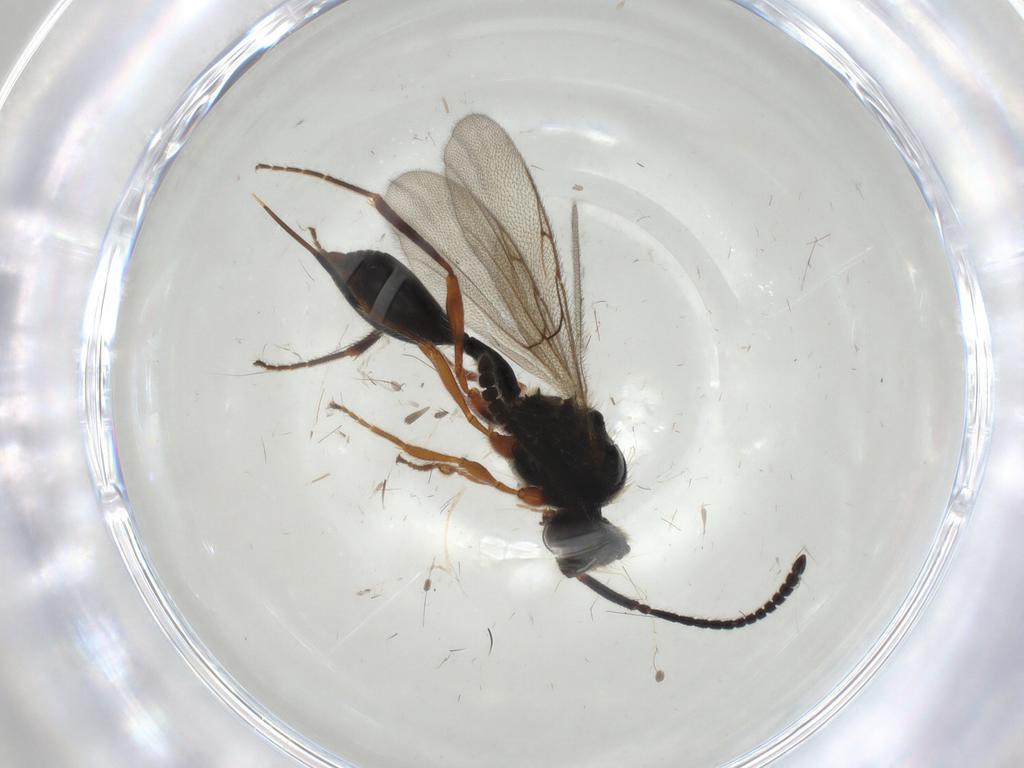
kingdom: Animalia
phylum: Arthropoda
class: Insecta
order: Hymenoptera
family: Diapriidae
